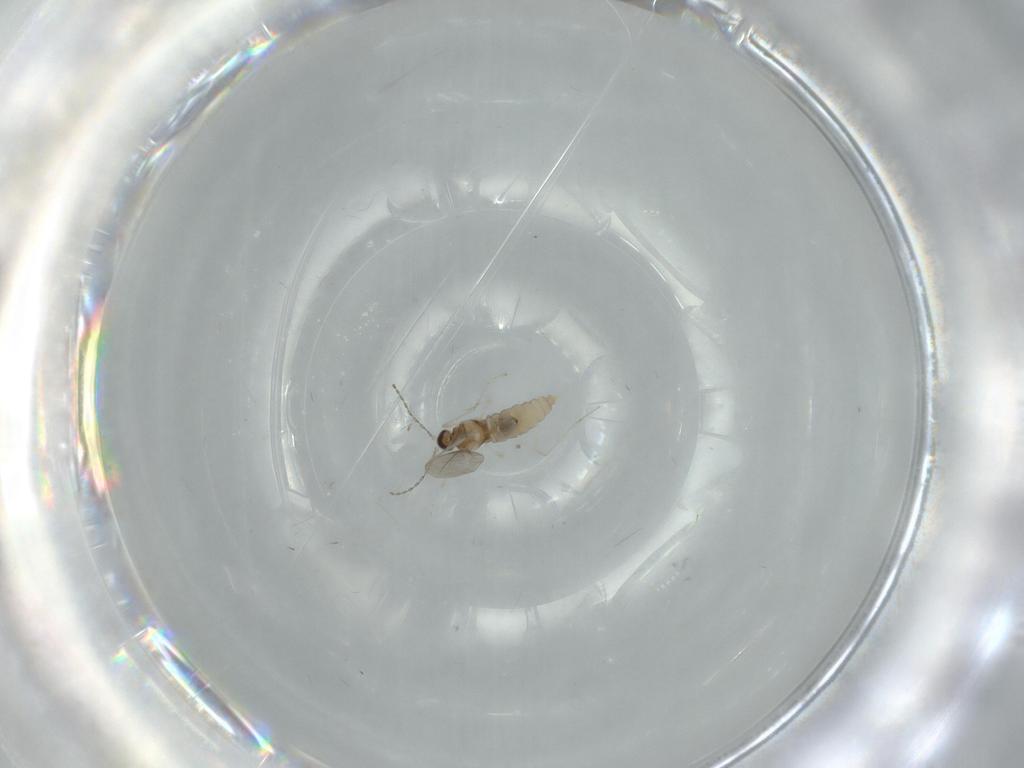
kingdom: Animalia
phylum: Arthropoda
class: Insecta
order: Diptera
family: Cecidomyiidae
